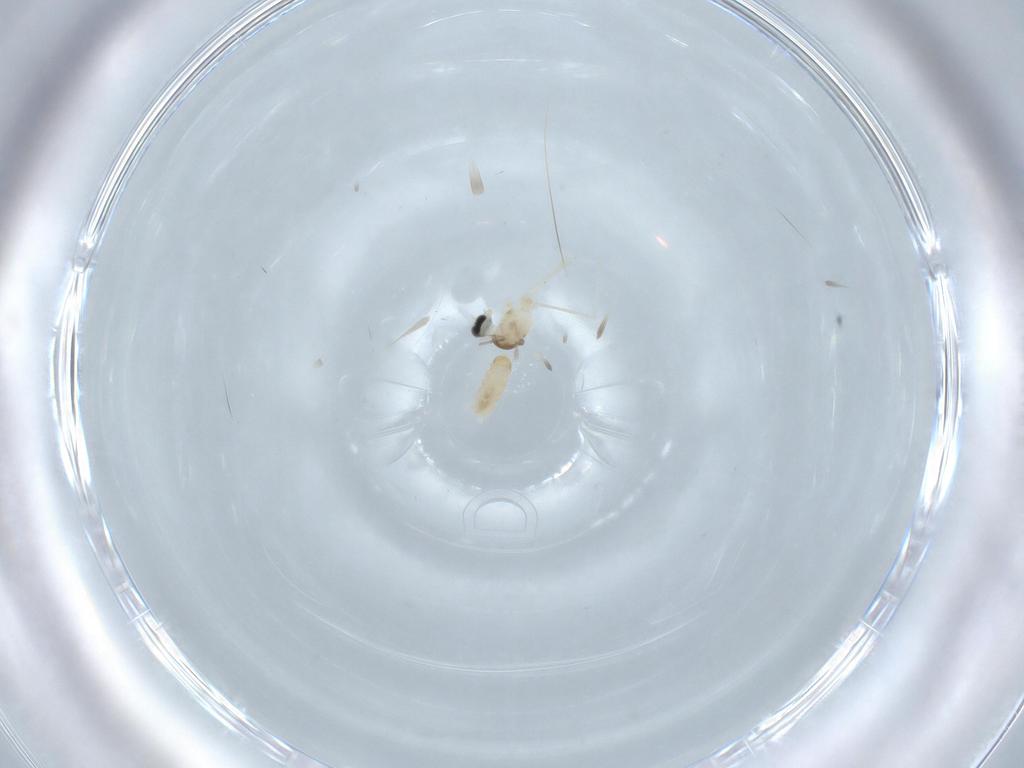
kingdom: Animalia
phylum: Arthropoda
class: Insecta
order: Diptera
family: Cecidomyiidae
